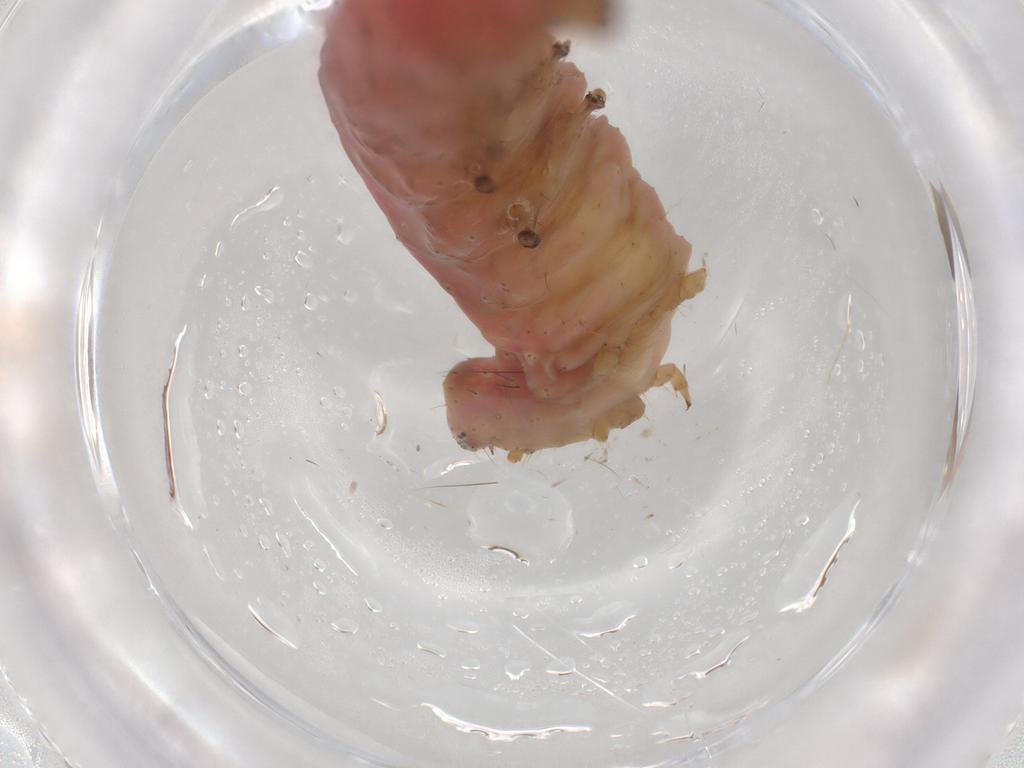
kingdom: Animalia
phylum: Arthropoda
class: Insecta
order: Lepidoptera
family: Gelechiidae
